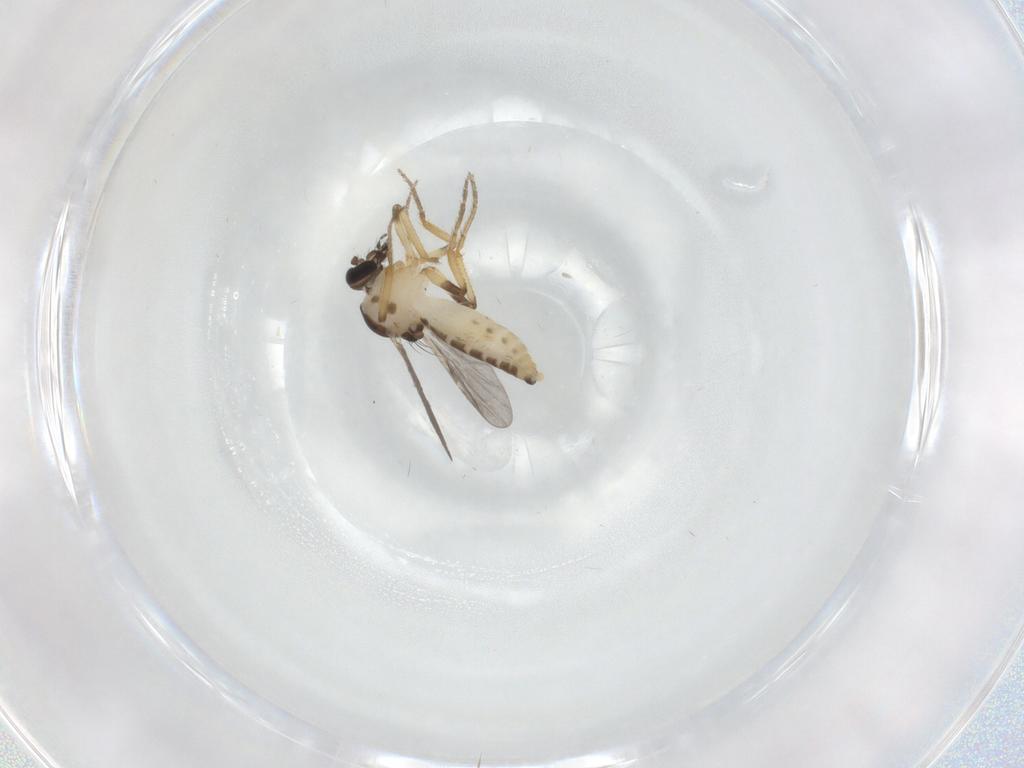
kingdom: Animalia
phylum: Arthropoda
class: Insecta
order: Diptera
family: Ceratopogonidae
